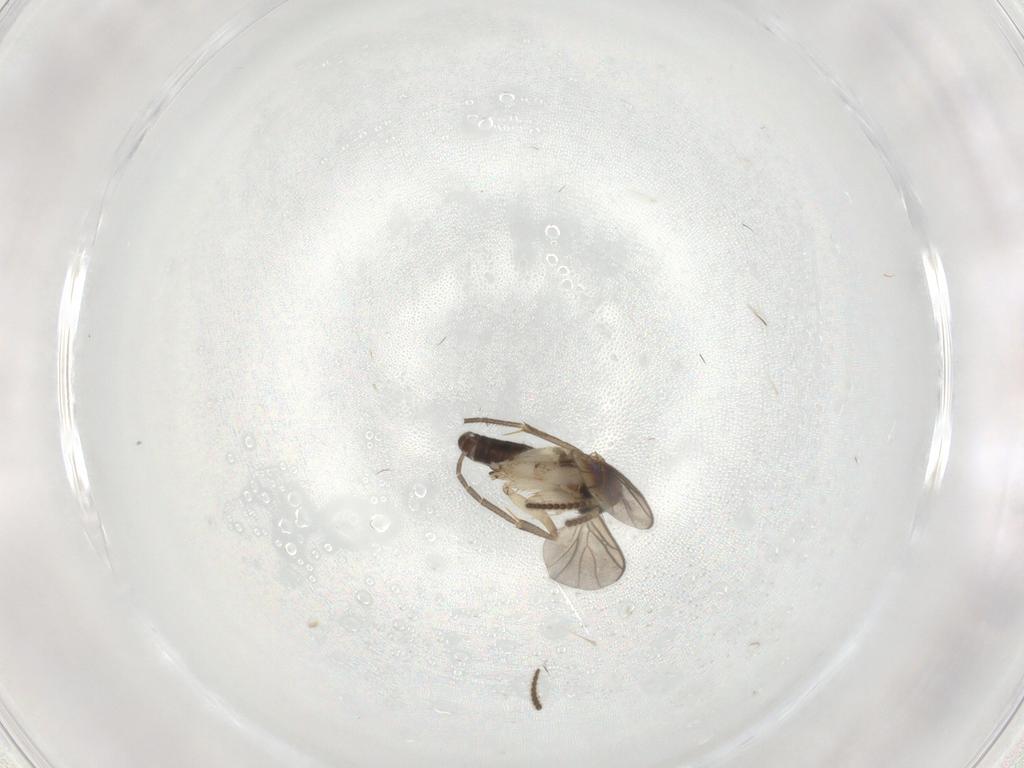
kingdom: Animalia
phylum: Arthropoda
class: Insecta
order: Diptera
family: Mycetophilidae
